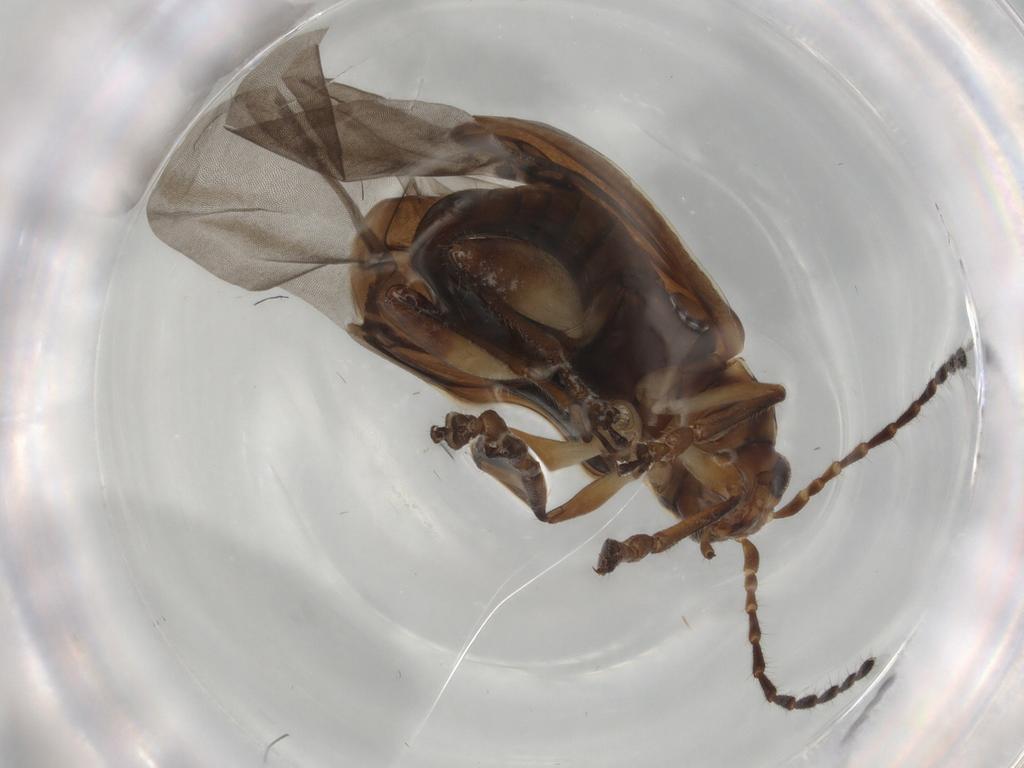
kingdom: Animalia
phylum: Arthropoda
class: Insecta
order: Coleoptera
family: Chrysomelidae
